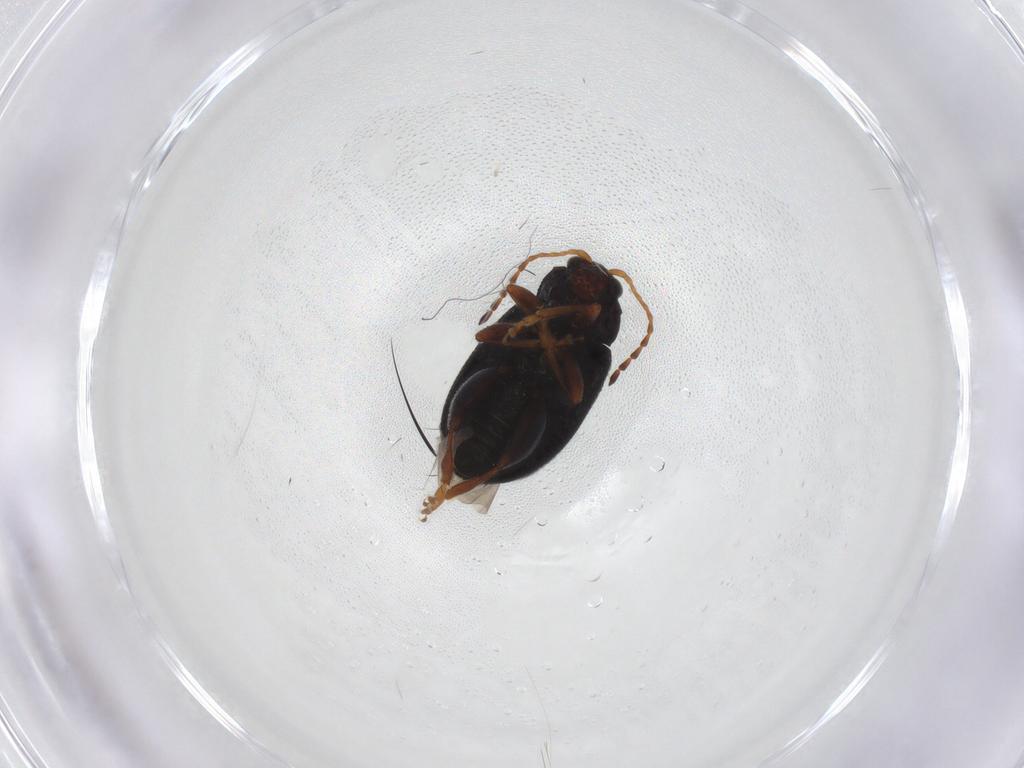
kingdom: Animalia
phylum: Arthropoda
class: Insecta
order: Coleoptera
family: Chrysomelidae
